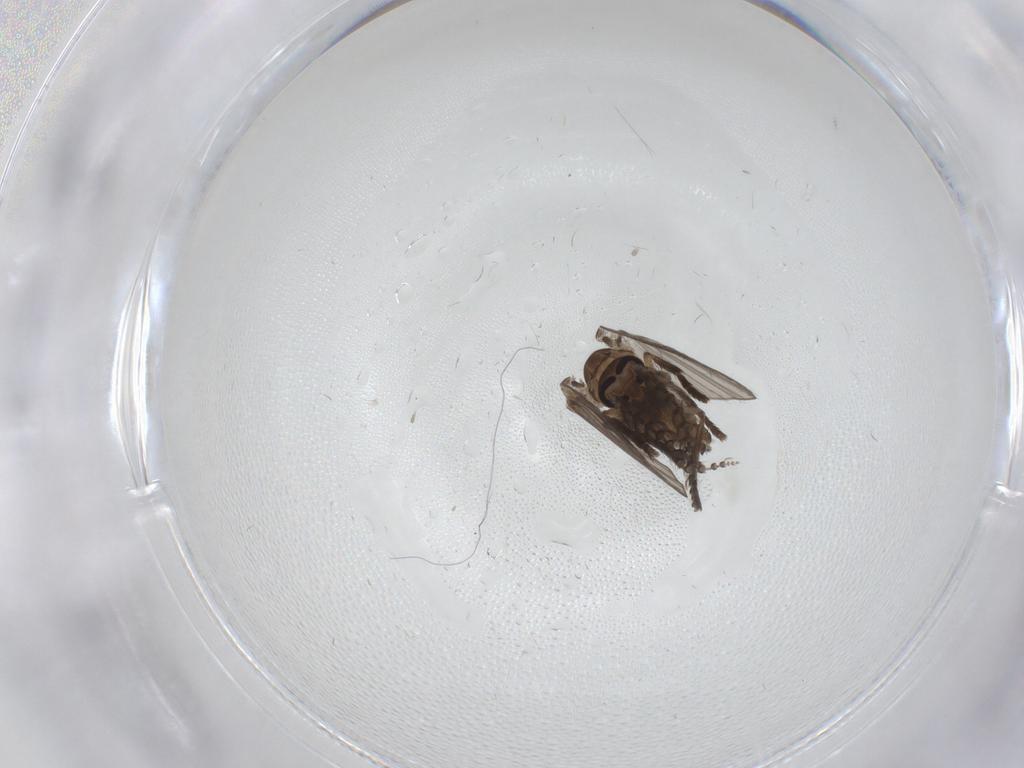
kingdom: Animalia
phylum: Arthropoda
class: Insecta
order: Diptera
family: Psychodidae
